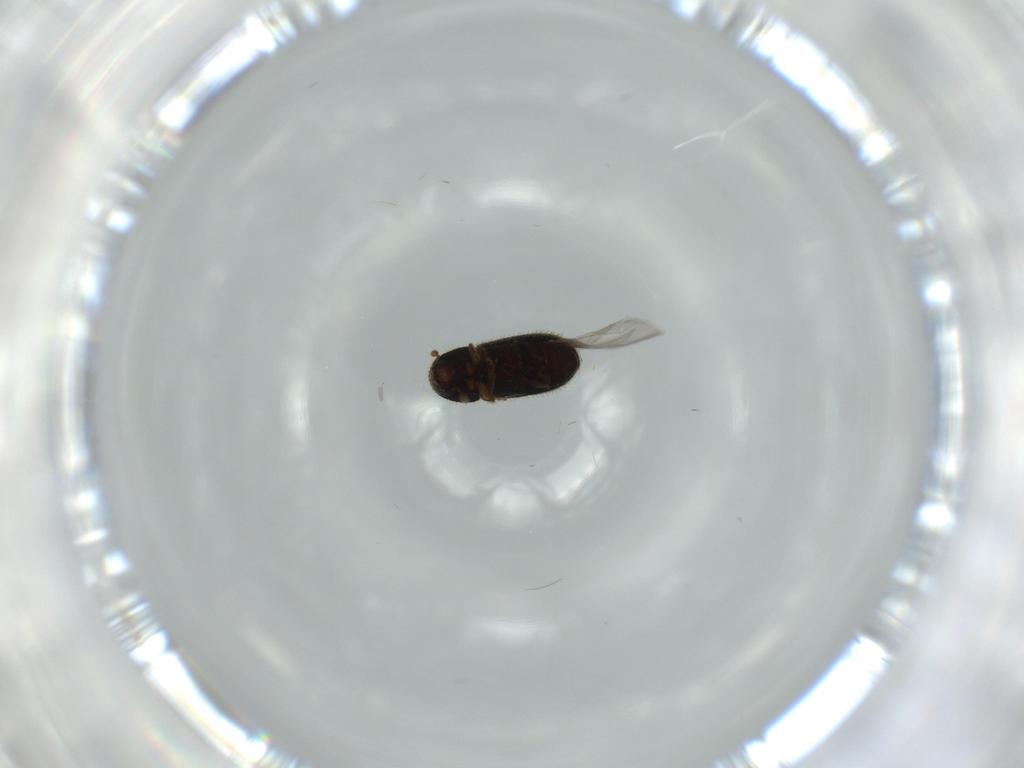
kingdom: Animalia
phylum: Arthropoda
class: Insecta
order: Coleoptera
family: Curculionidae
